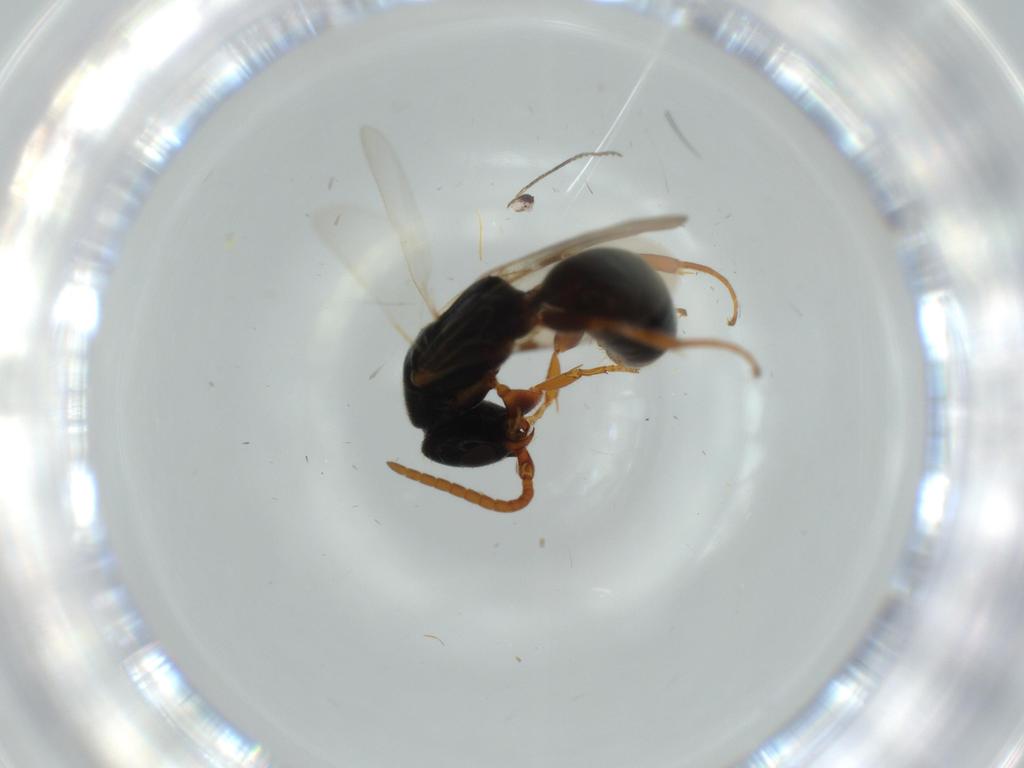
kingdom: Animalia
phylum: Arthropoda
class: Insecta
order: Hymenoptera
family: Bethylidae
